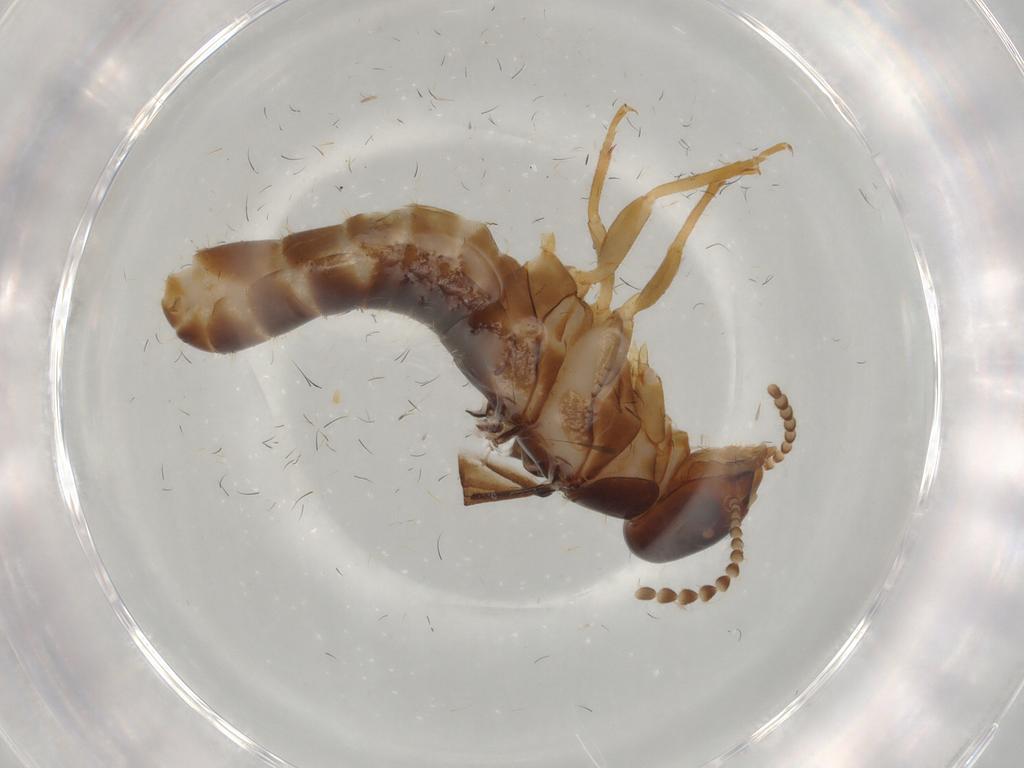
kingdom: Animalia
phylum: Arthropoda
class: Insecta
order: Blattodea
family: Kalotermitidae
